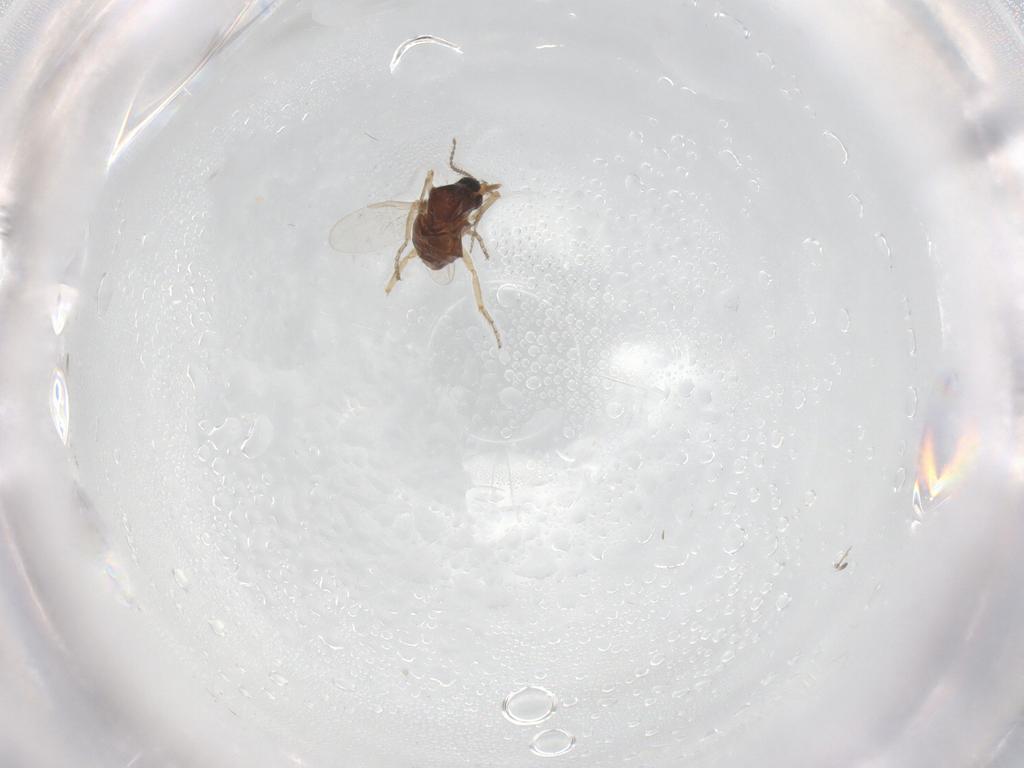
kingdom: Animalia
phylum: Arthropoda
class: Insecta
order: Diptera
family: Ceratopogonidae
